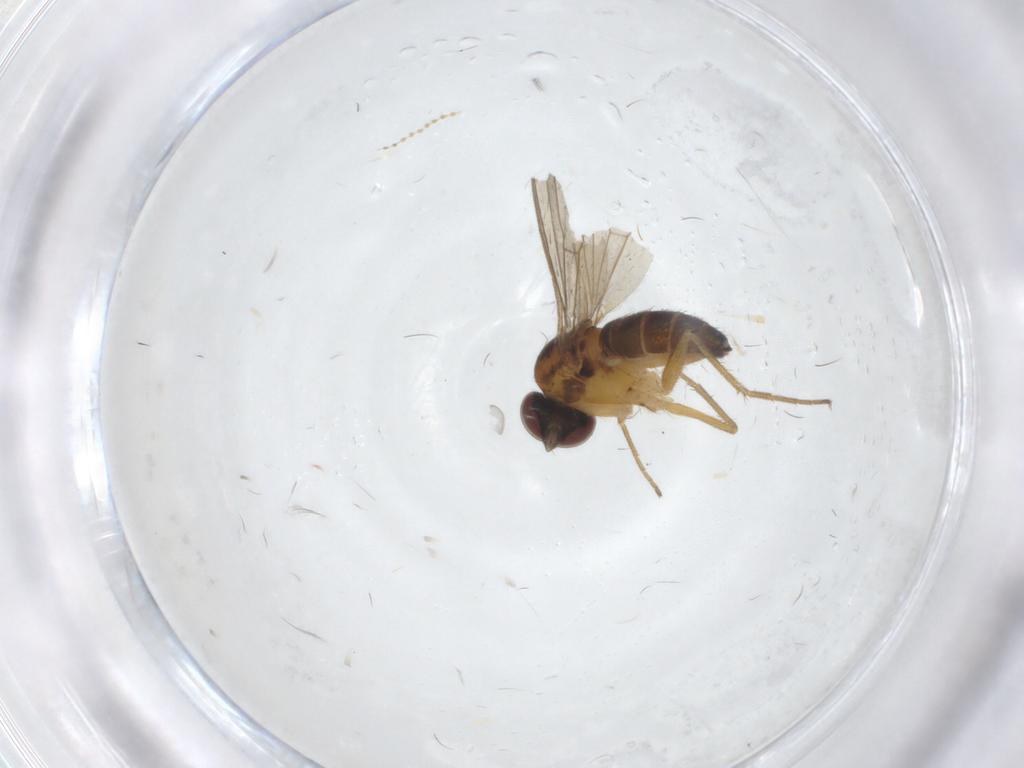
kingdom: Animalia
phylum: Arthropoda
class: Insecta
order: Diptera
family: Dolichopodidae
